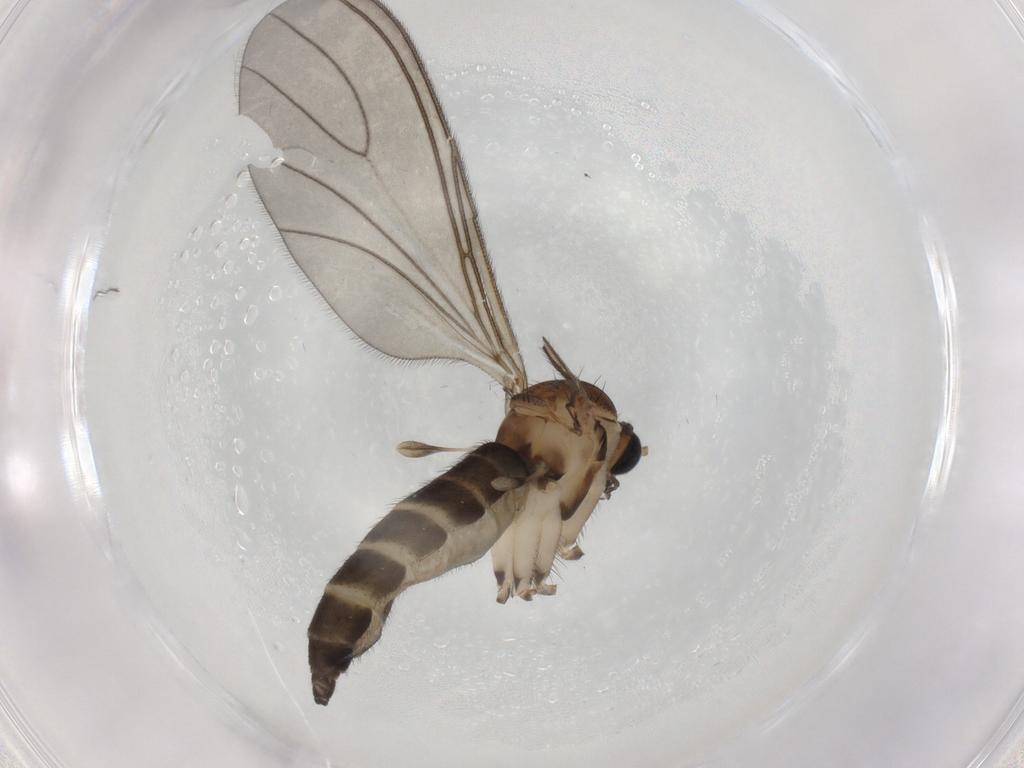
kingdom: Animalia
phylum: Arthropoda
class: Insecta
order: Diptera
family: Sciaridae
